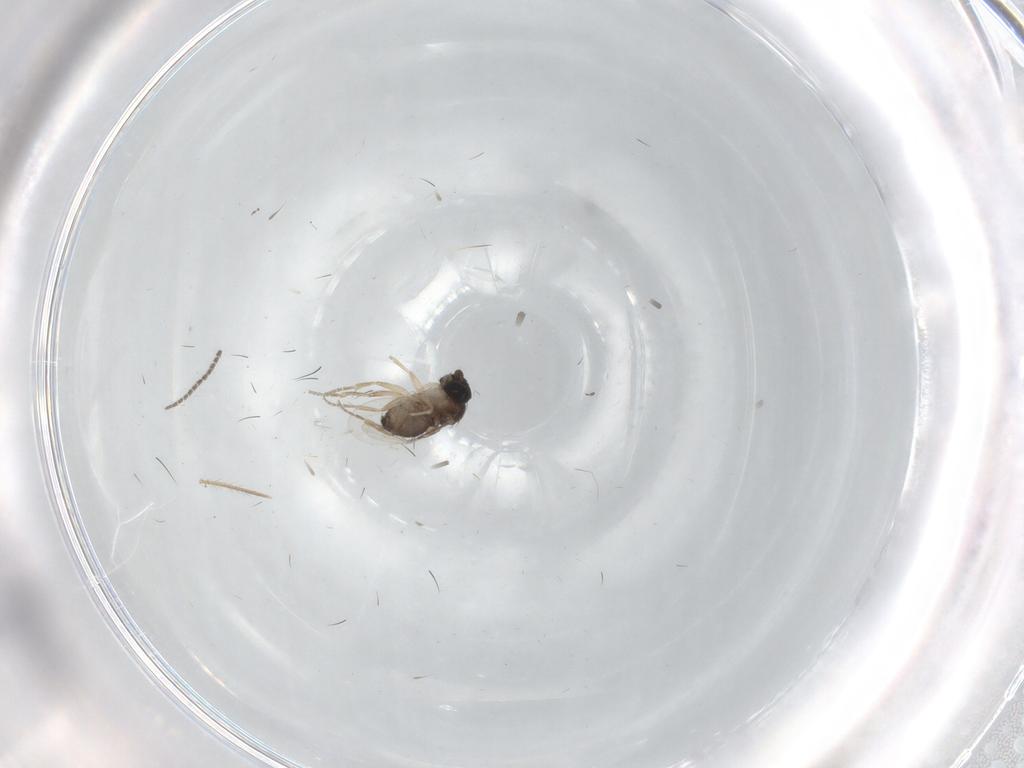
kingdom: Animalia
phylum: Arthropoda
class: Insecta
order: Diptera
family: Phoridae
